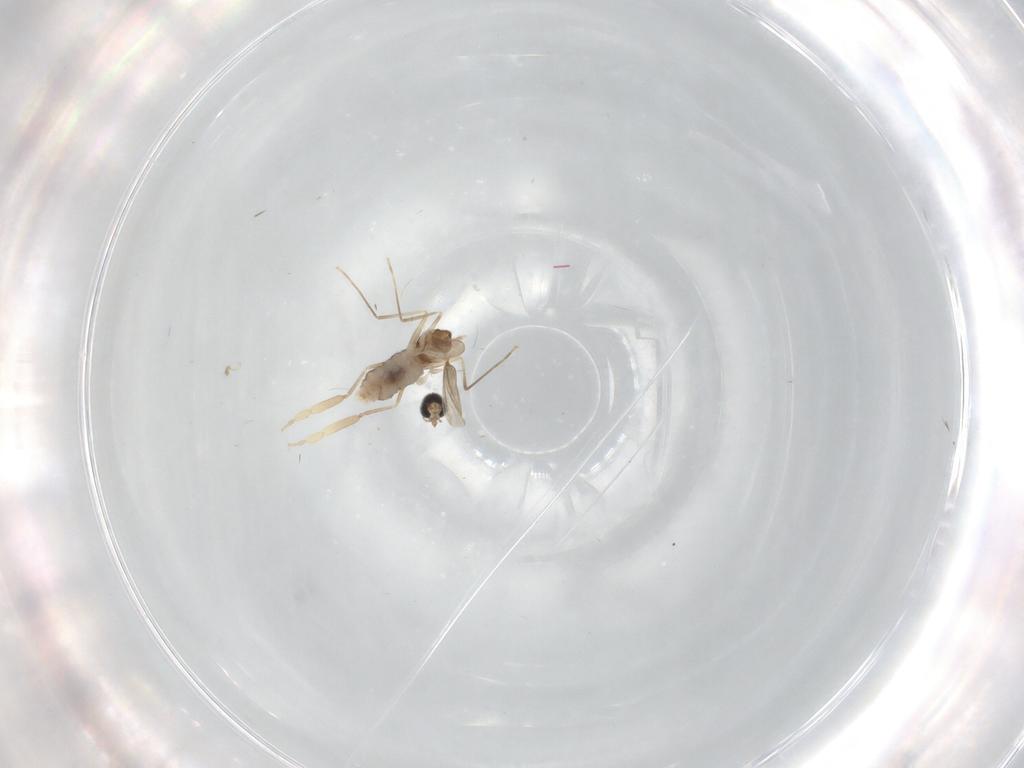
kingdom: Animalia
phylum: Arthropoda
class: Insecta
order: Diptera
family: Cecidomyiidae
